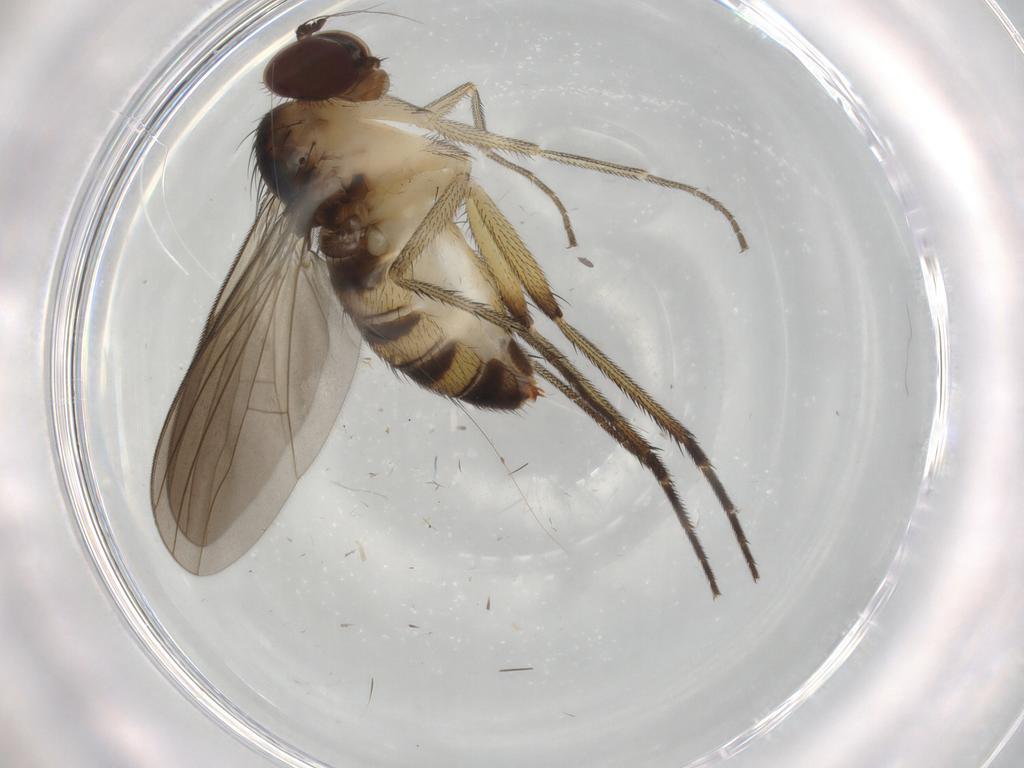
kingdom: Animalia
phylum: Arthropoda
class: Insecta
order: Diptera
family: Dolichopodidae
